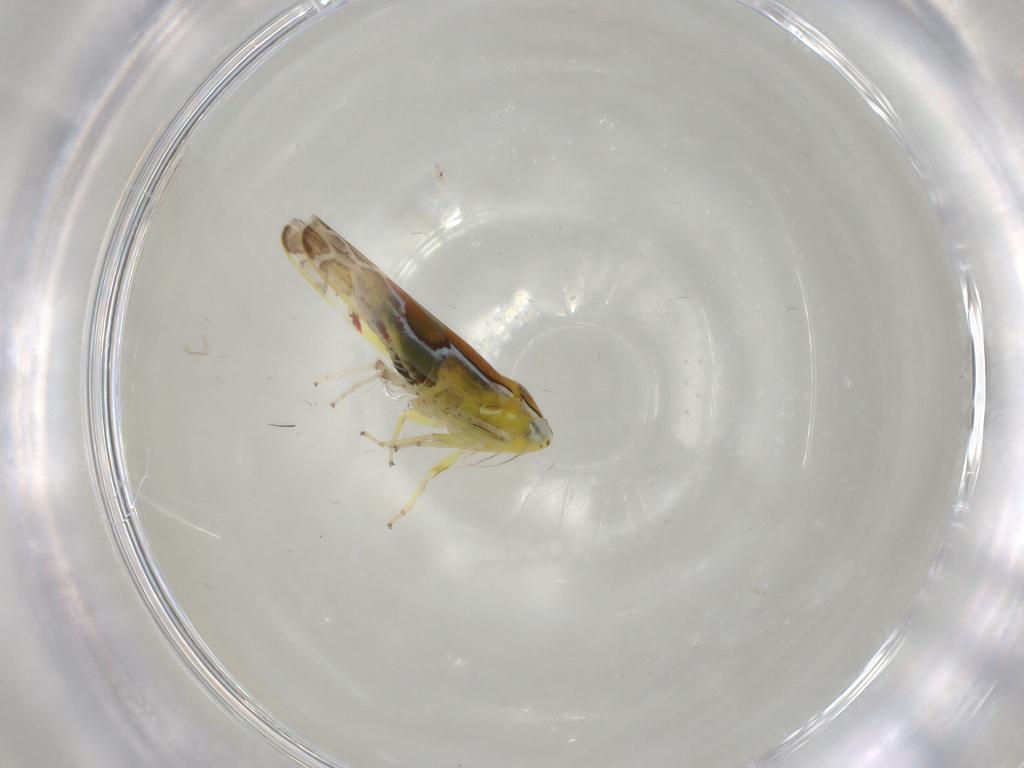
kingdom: Animalia
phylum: Arthropoda
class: Insecta
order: Hemiptera
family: Cicadellidae
